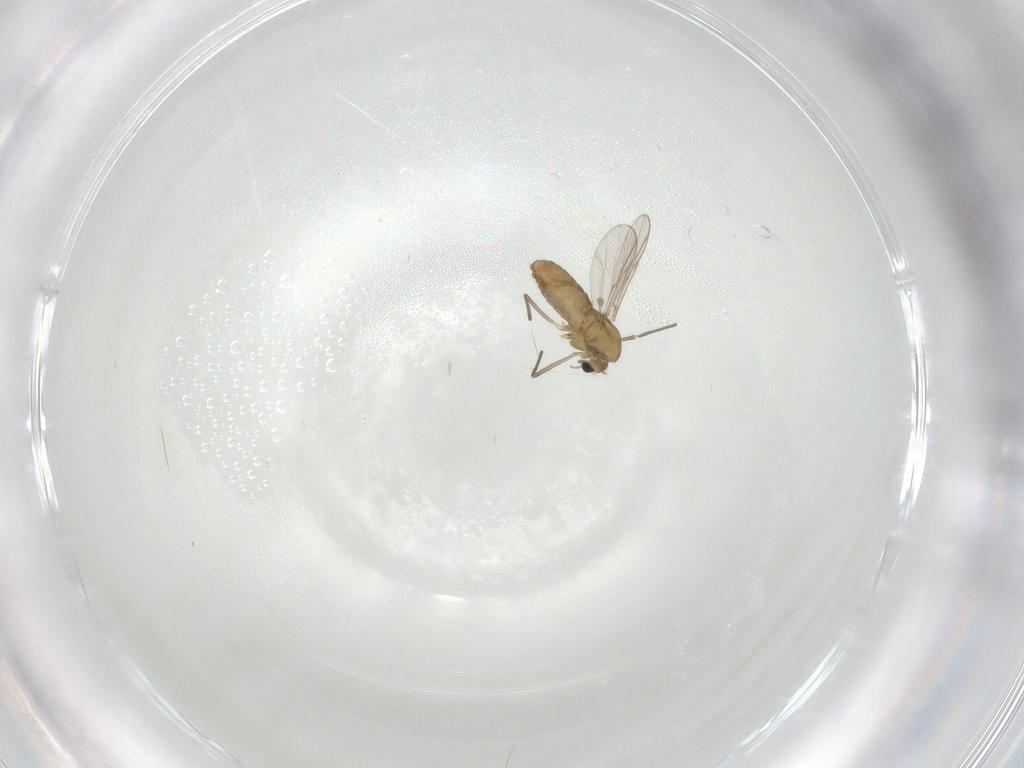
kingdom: Animalia
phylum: Arthropoda
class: Insecta
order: Diptera
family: Chironomidae
